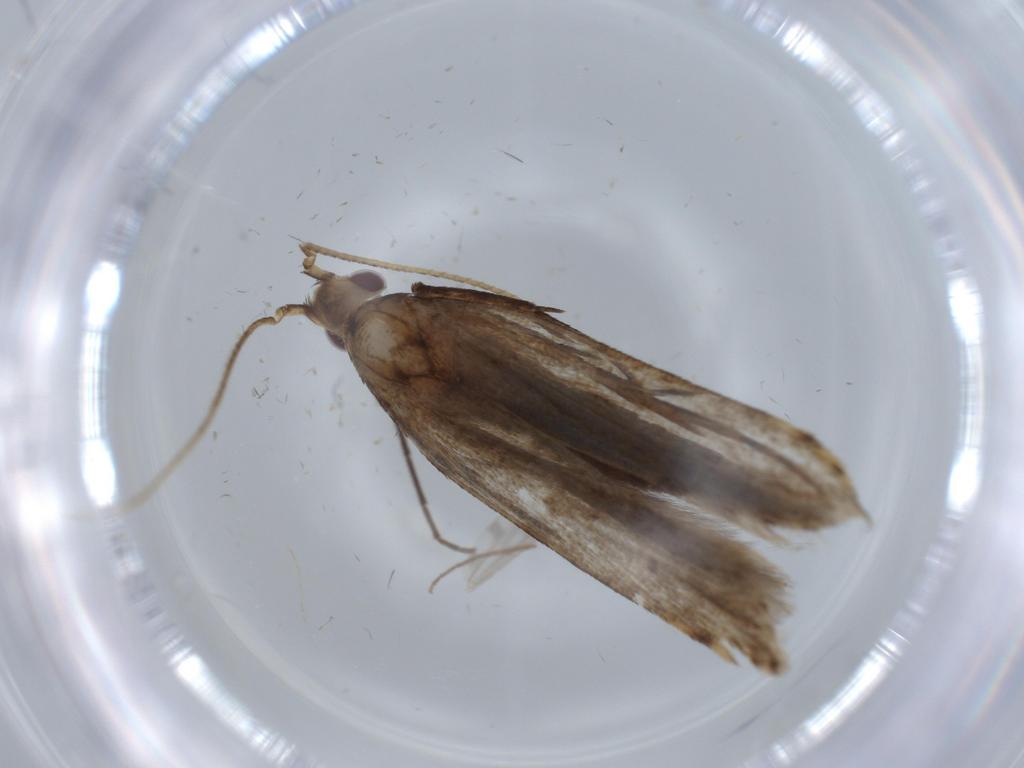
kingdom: Animalia
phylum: Arthropoda
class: Insecta
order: Lepidoptera
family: Gelechiidae
